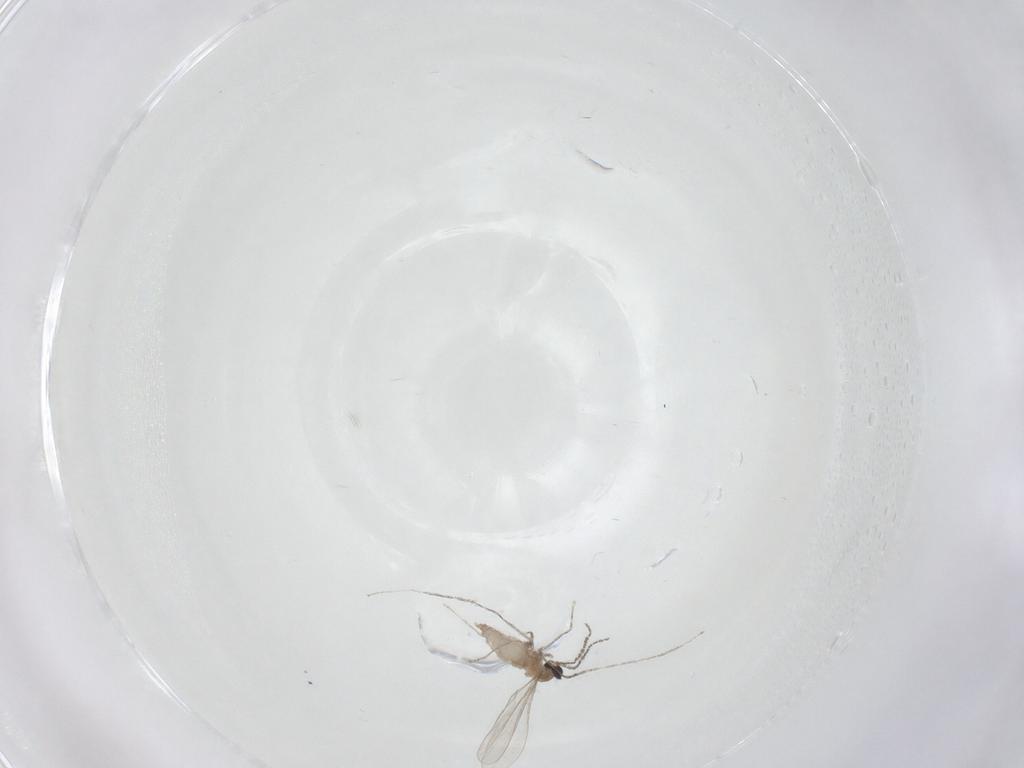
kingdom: Animalia
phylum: Arthropoda
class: Insecta
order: Diptera
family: Cecidomyiidae
